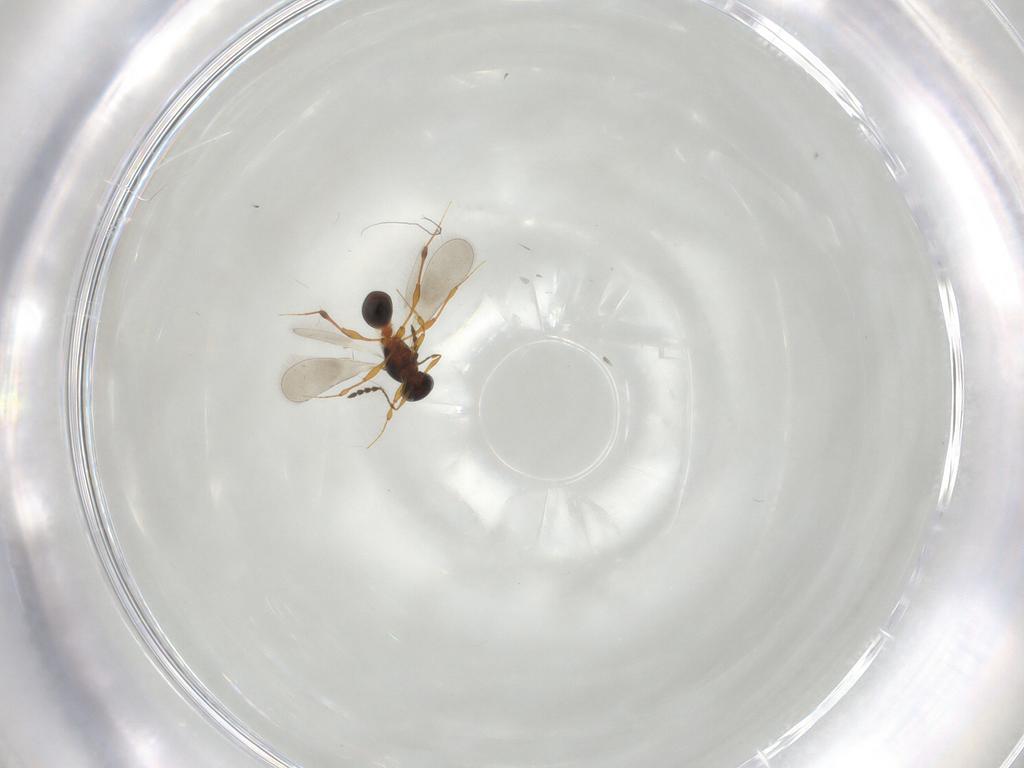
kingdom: Animalia
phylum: Arthropoda
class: Insecta
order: Hymenoptera
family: Platygastridae
